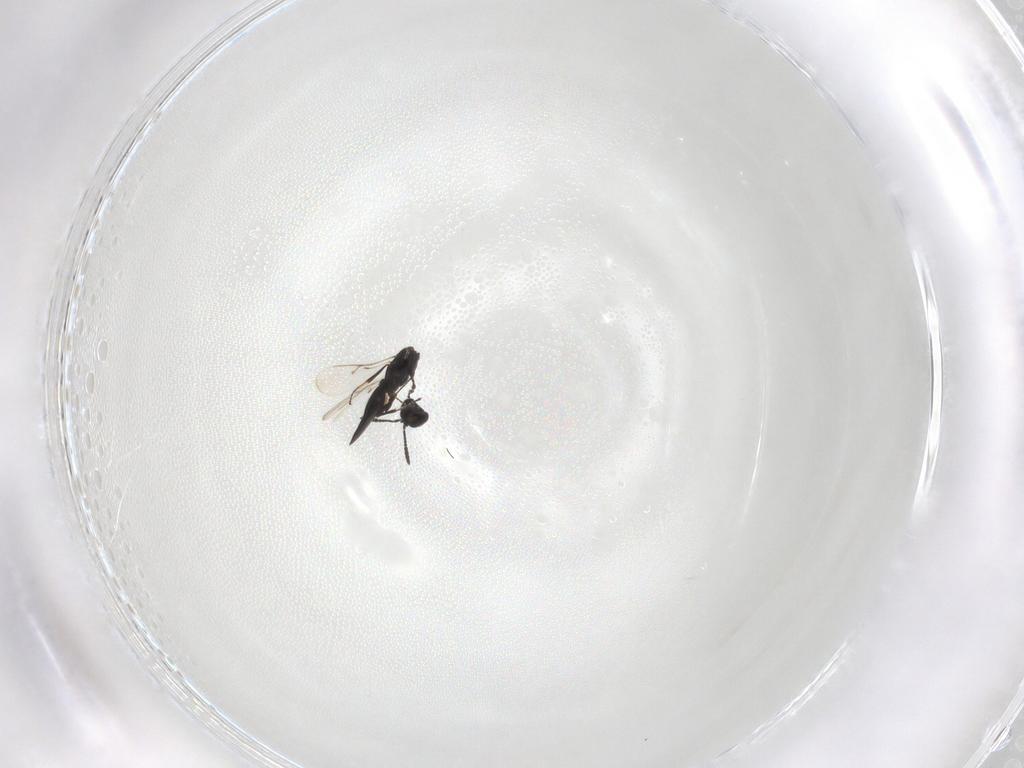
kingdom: Animalia
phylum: Arthropoda
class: Insecta
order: Hymenoptera
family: Scelionidae
